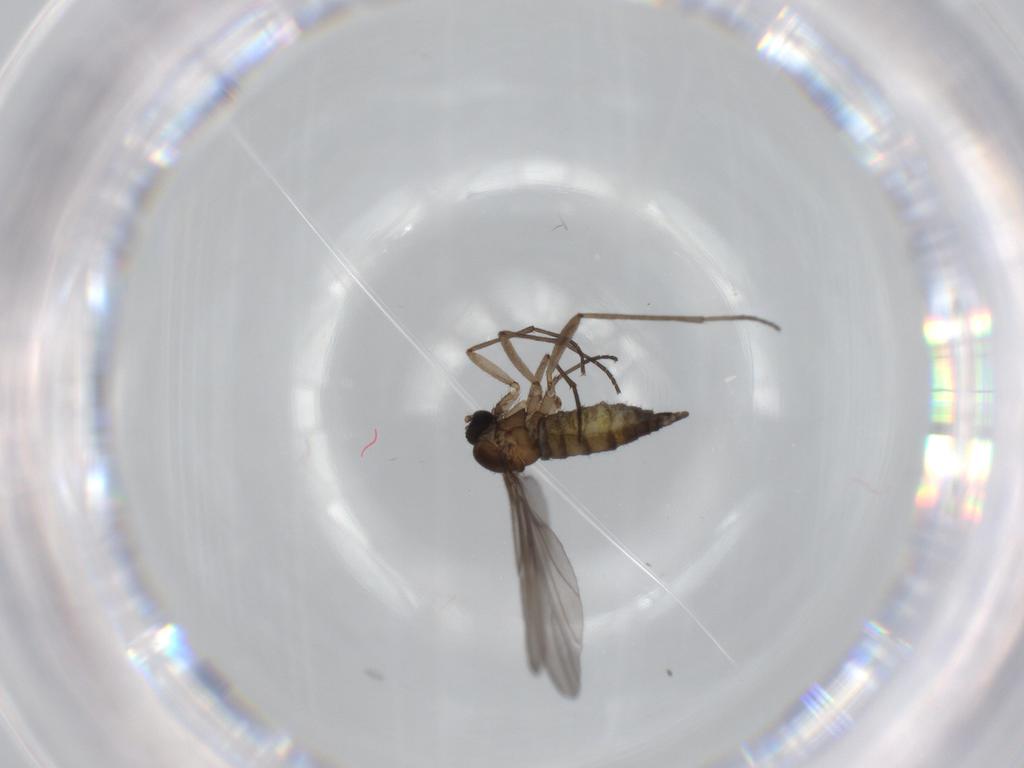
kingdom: Animalia
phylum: Arthropoda
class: Insecta
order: Diptera
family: Sciaridae
